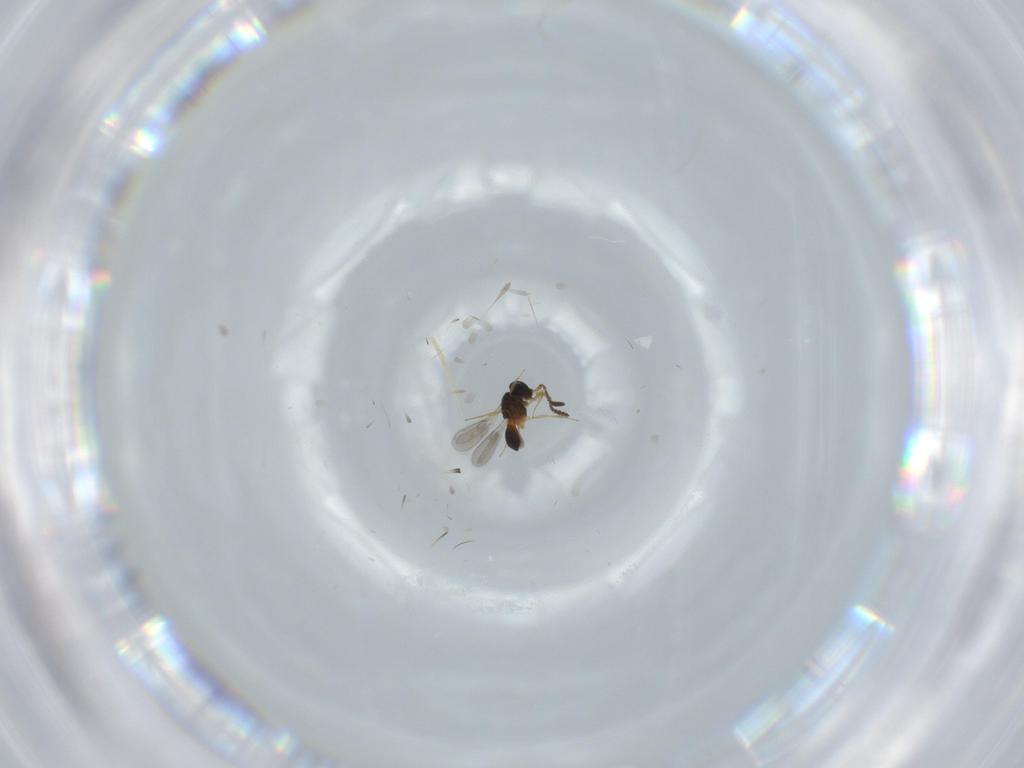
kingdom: Animalia
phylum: Arthropoda
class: Insecta
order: Hymenoptera
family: Scelionidae
